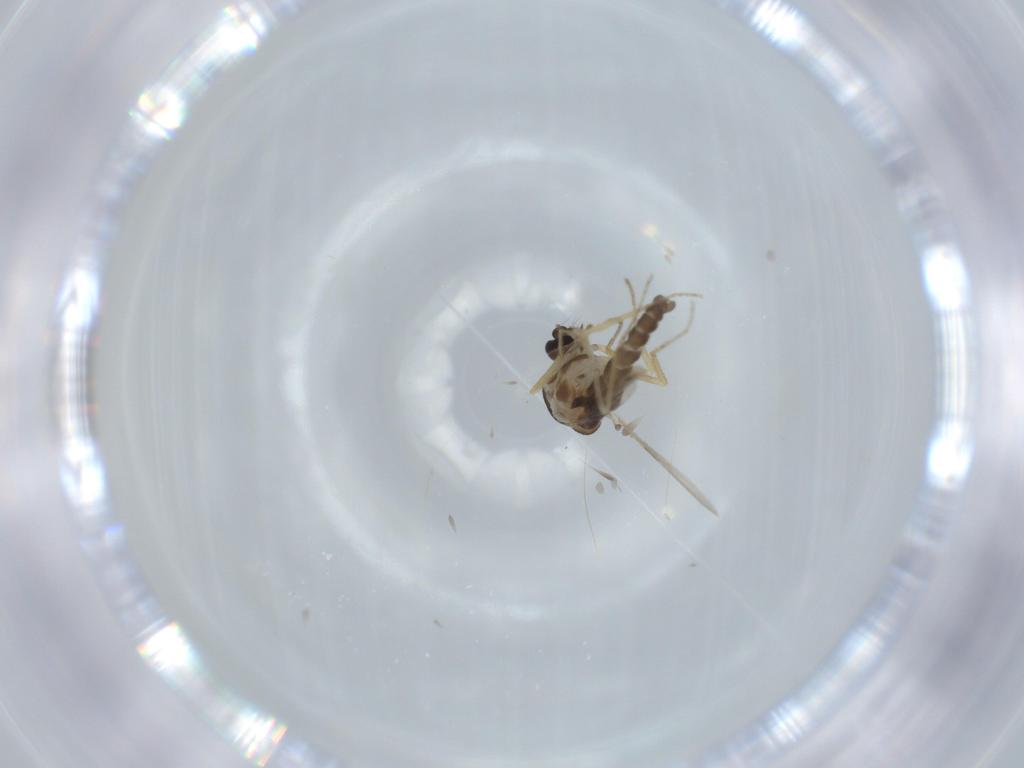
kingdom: Animalia
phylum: Arthropoda
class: Insecta
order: Diptera
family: Ceratopogonidae
